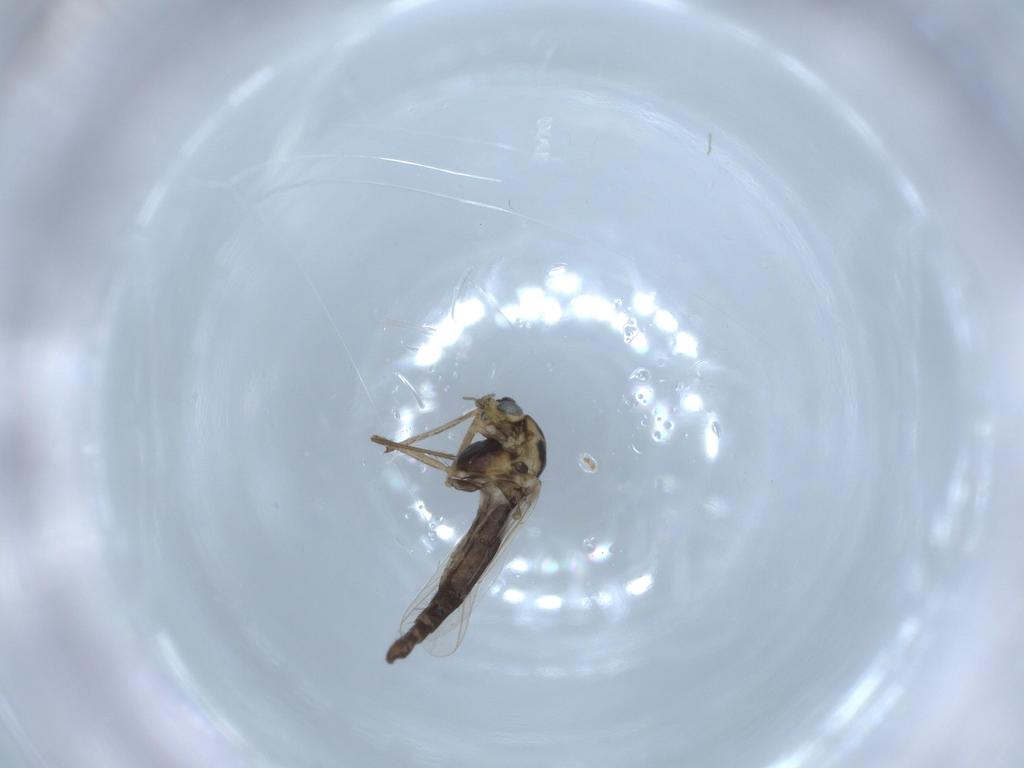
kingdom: Animalia
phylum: Arthropoda
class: Insecta
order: Diptera
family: Chironomidae
